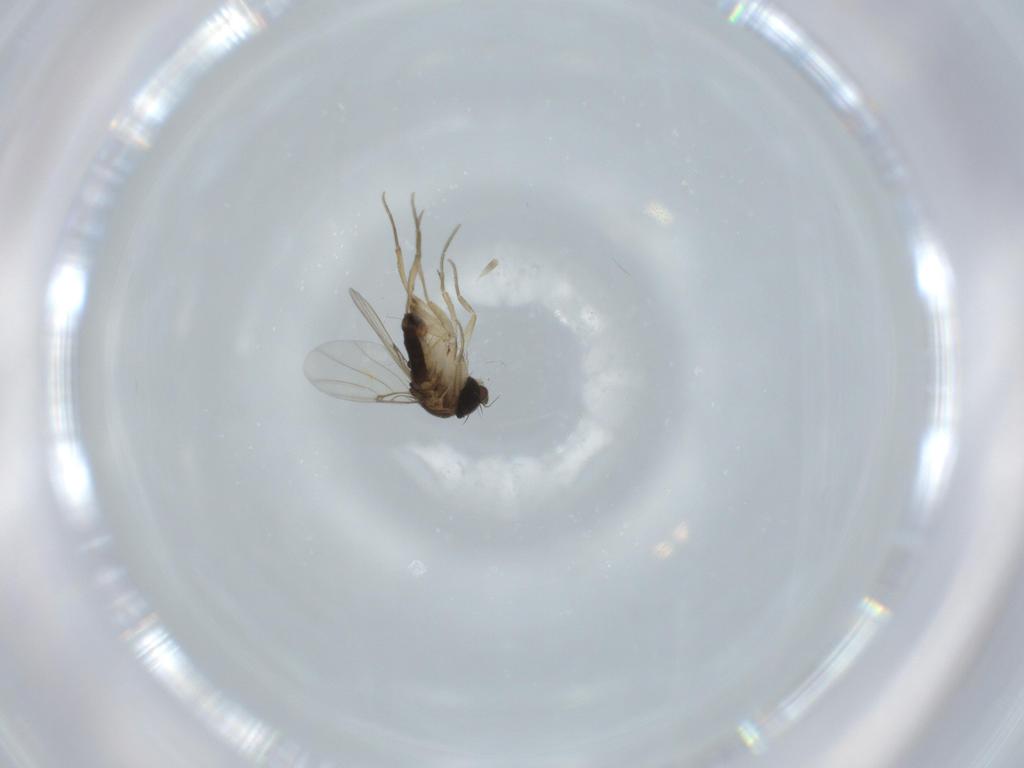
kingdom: Animalia
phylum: Arthropoda
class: Insecta
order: Diptera
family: Phoridae
